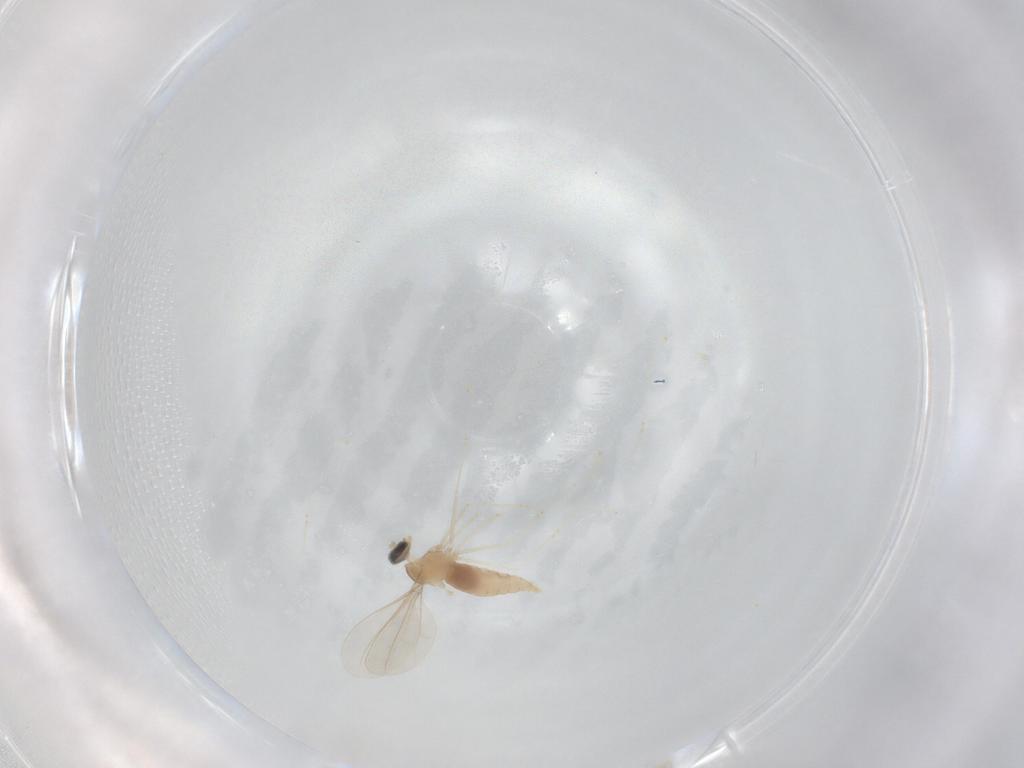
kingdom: Animalia
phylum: Arthropoda
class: Insecta
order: Diptera
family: Cecidomyiidae
